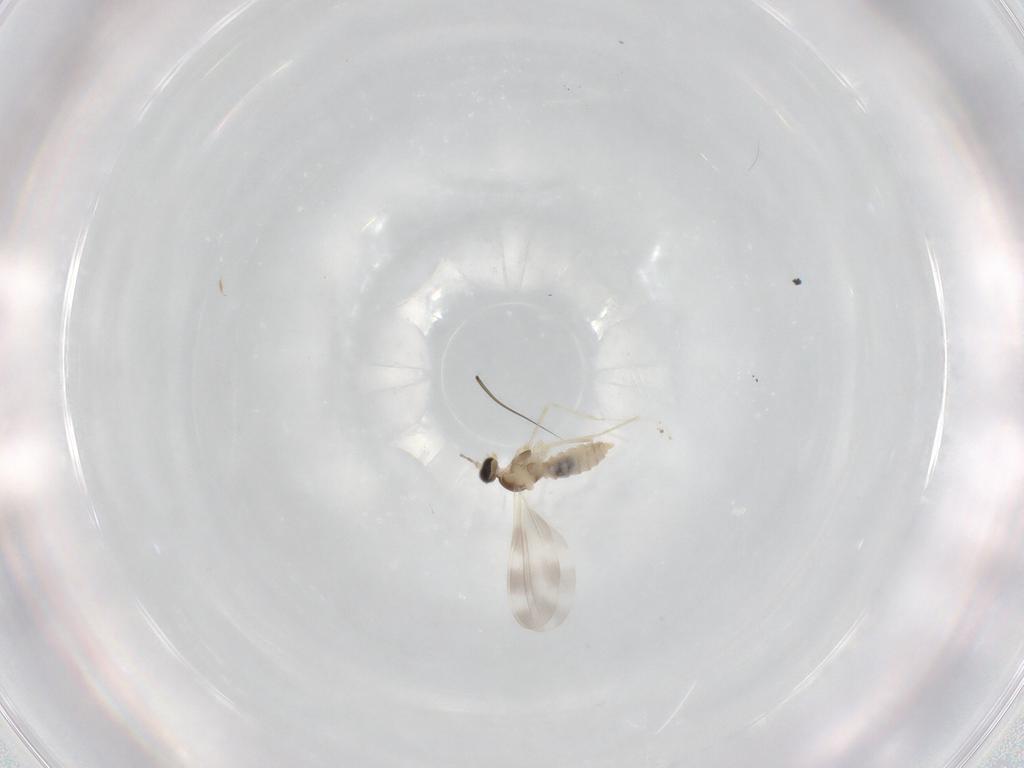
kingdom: Animalia
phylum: Arthropoda
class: Insecta
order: Diptera
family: Cecidomyiidae
